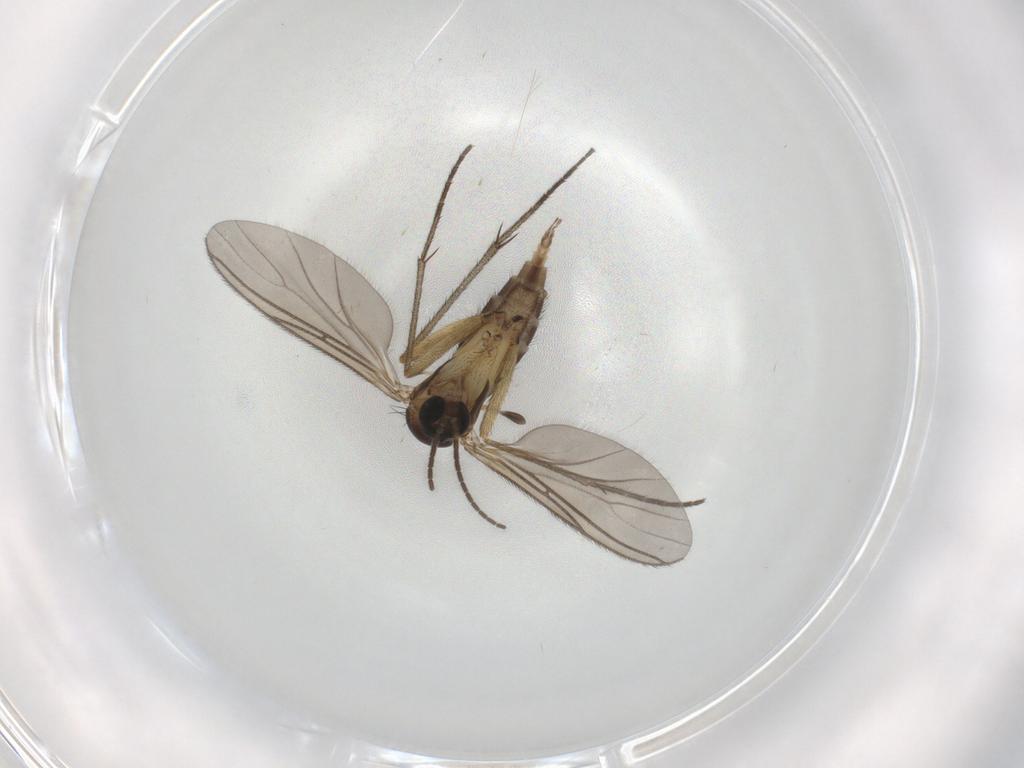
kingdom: Animalia
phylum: Arthropoda
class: Insecta
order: Diptera
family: Sciaridae
